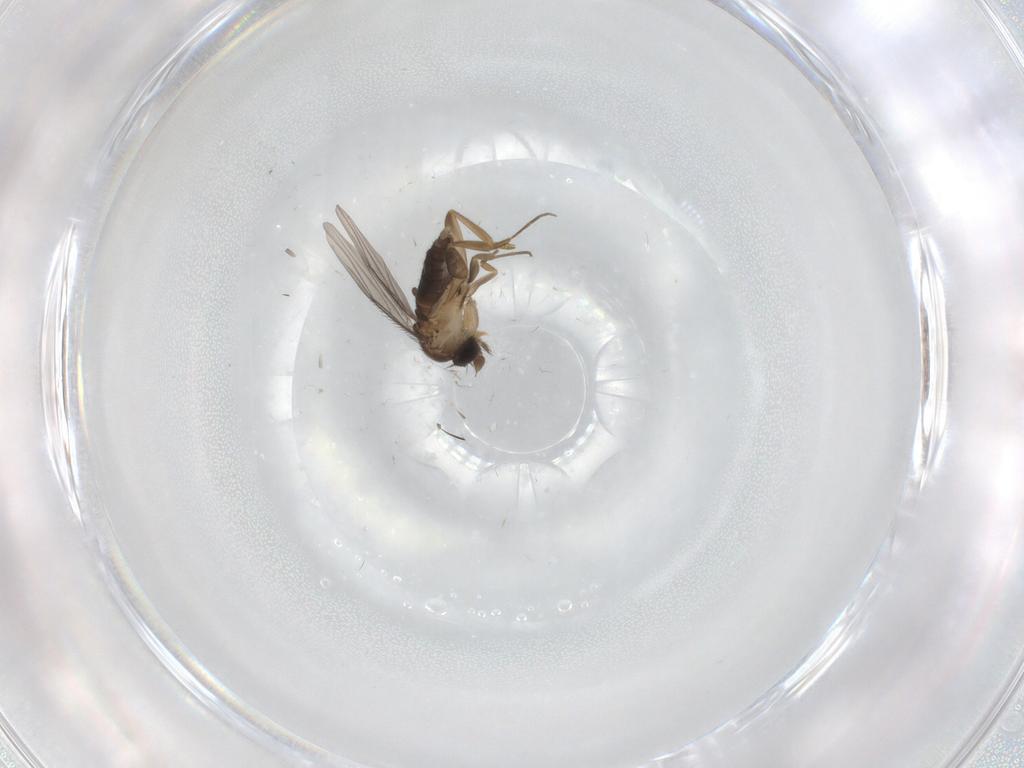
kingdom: Animalia
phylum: Arthropoda
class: Insecta
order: Diptera
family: Phoridae
